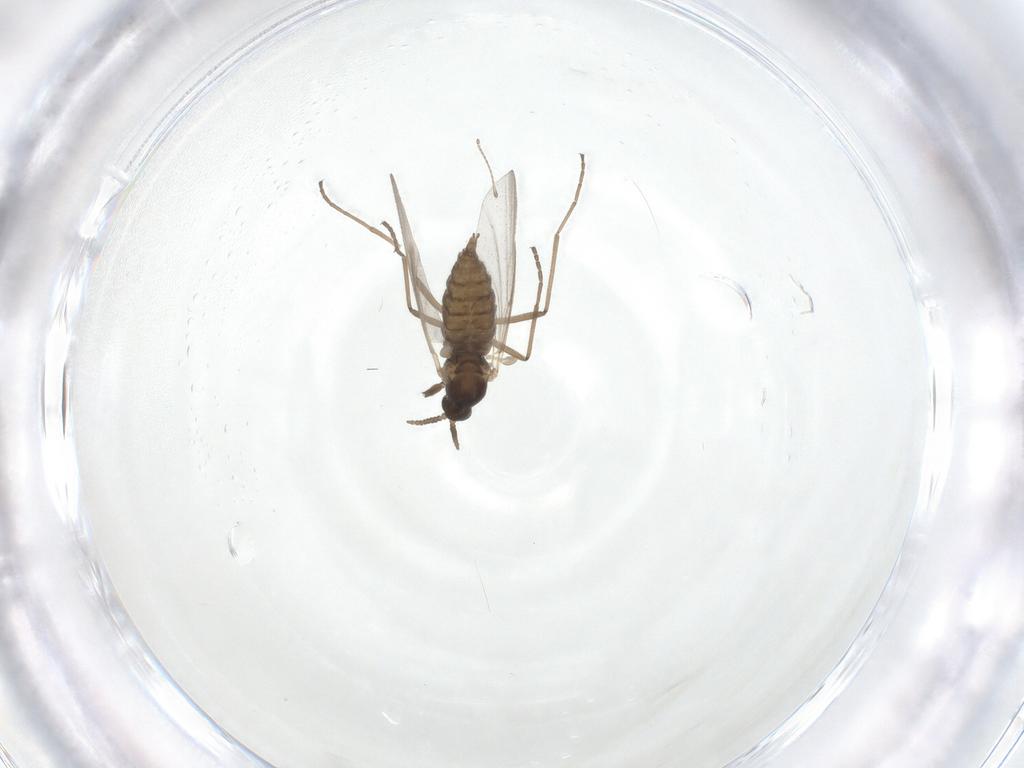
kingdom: Animalia
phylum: Arthropoda
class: Insecta
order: Diptera
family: Cecidomyiidae
